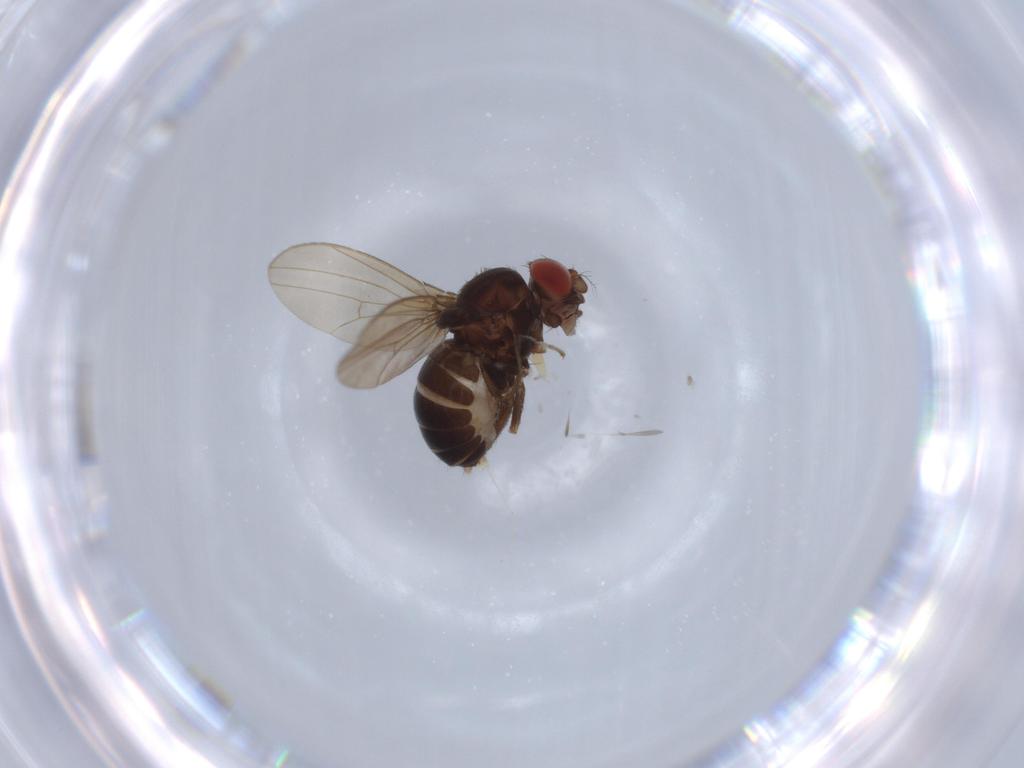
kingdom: Animalia
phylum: Arthropoda
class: Insecta
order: Diptera
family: Drosophilidae
